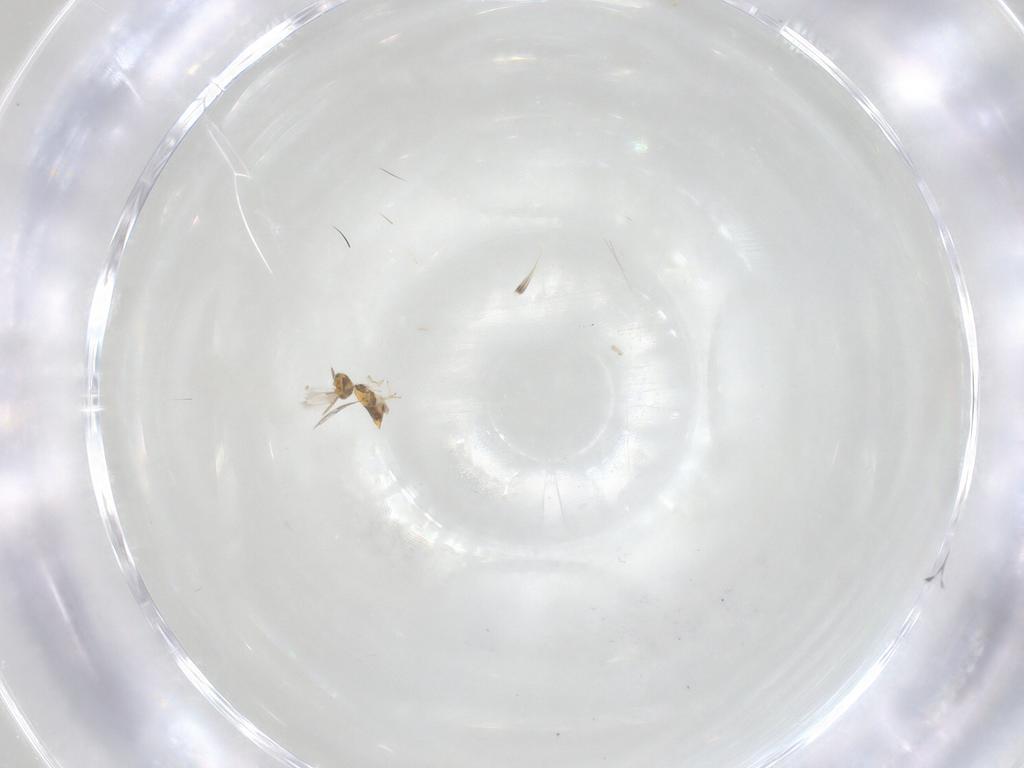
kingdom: Animalia
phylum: Arthropoda
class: Insecta
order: Hymenoptera
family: Aphelinidae
